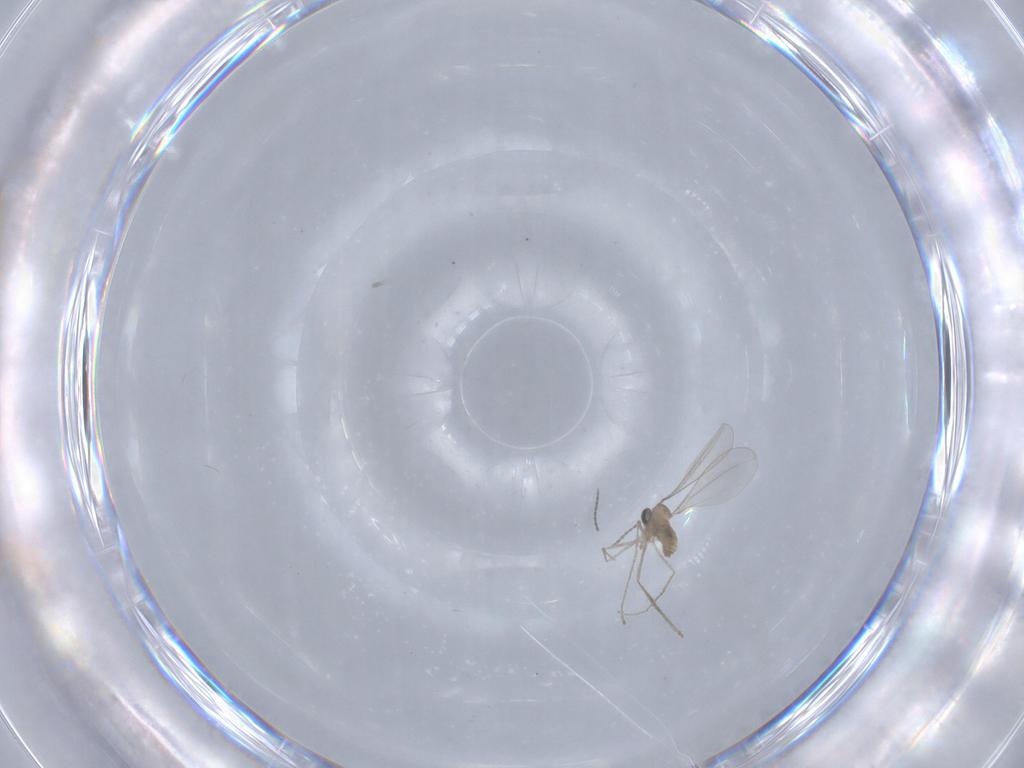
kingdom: Animalia
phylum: Arthropoda
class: Insecta
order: Diptera
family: Cecidomyiidae
